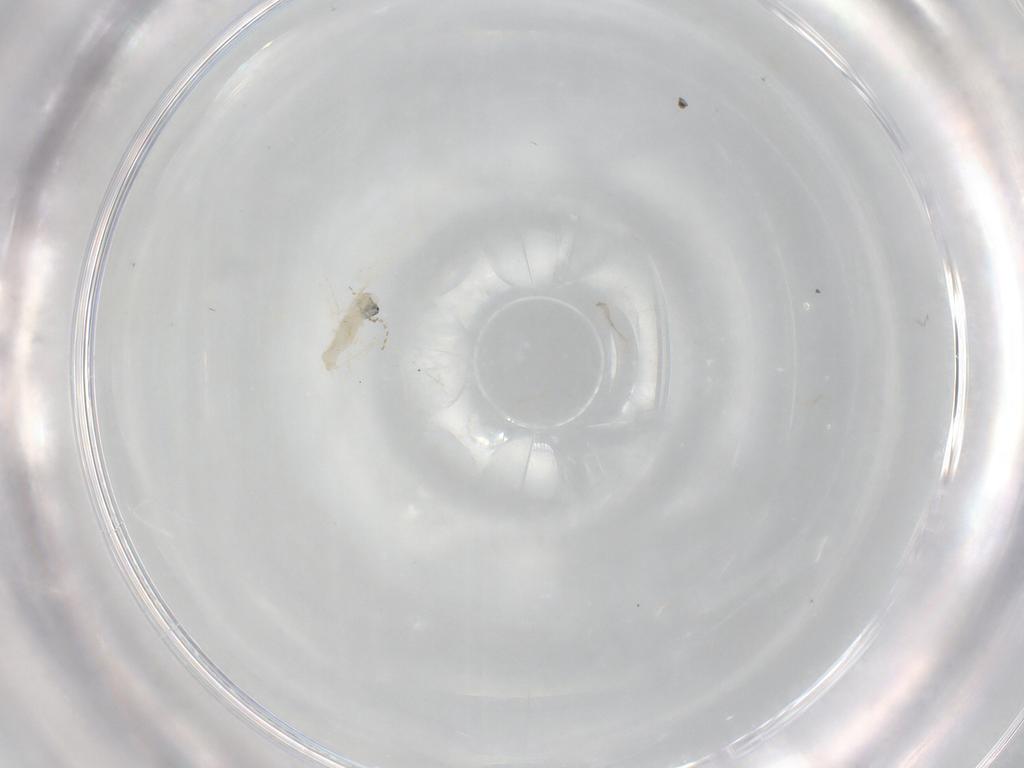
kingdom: Animalia
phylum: Arthropoda
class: Insecta
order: Diptera
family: Cecidomyiidae
